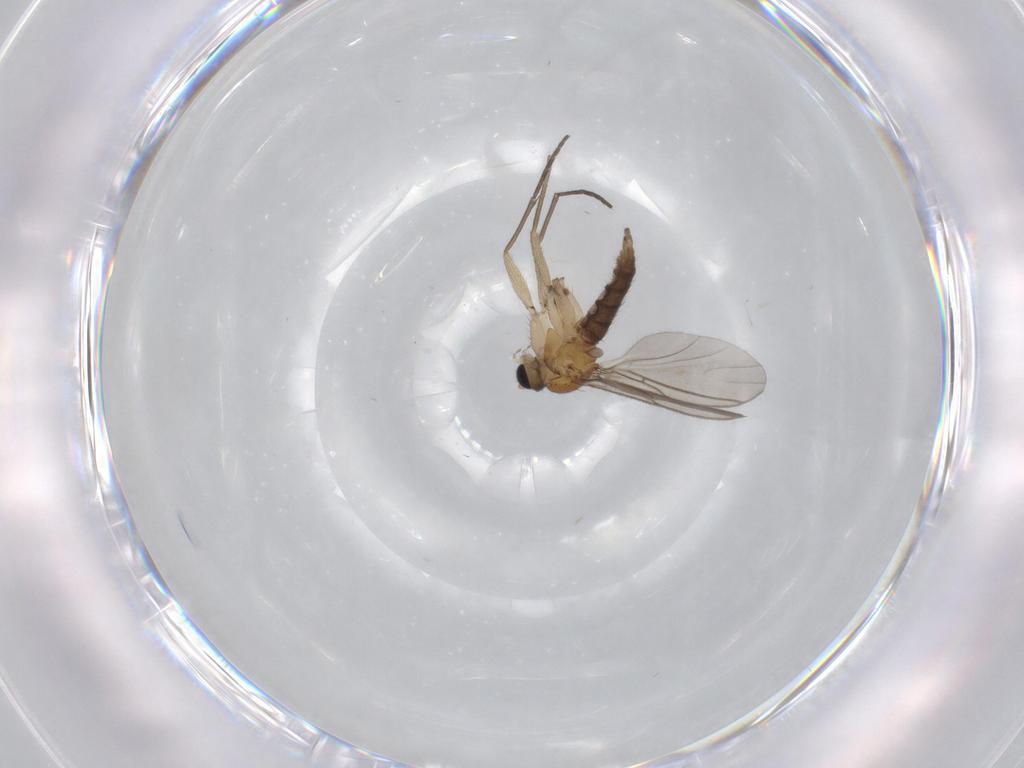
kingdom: Animalia
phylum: Arthropoda
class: Insecta
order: Diptera
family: Sciaridae
